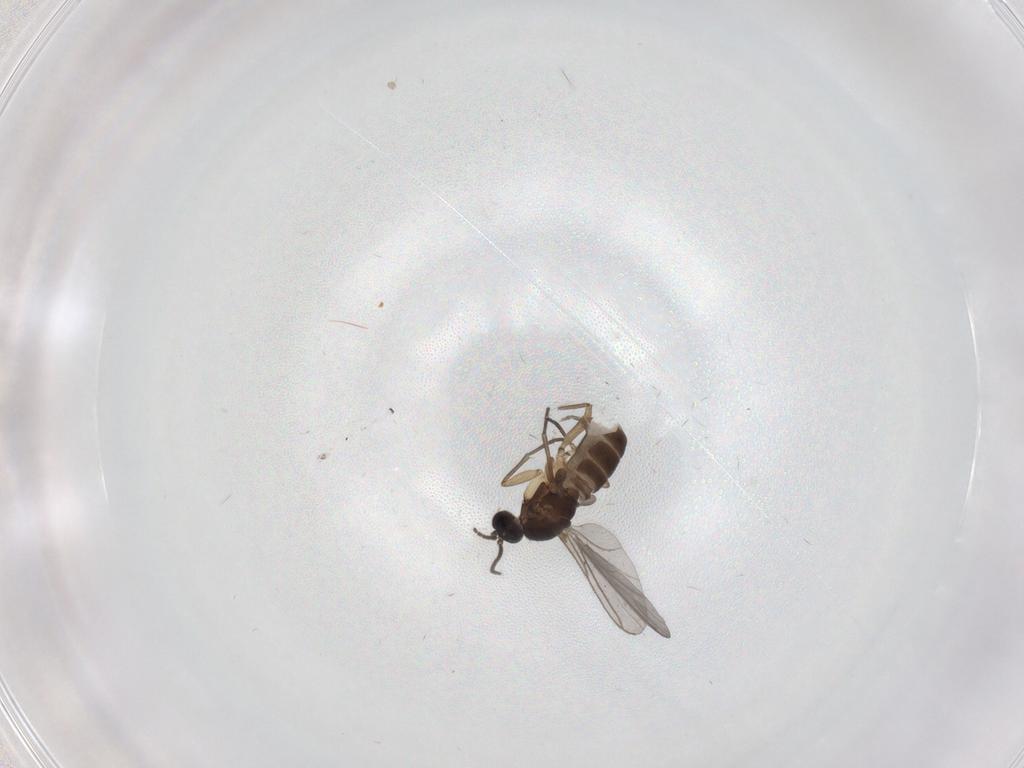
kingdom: Animalia
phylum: Arthropoda
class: Insecta
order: Diptera
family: Sciaridae
